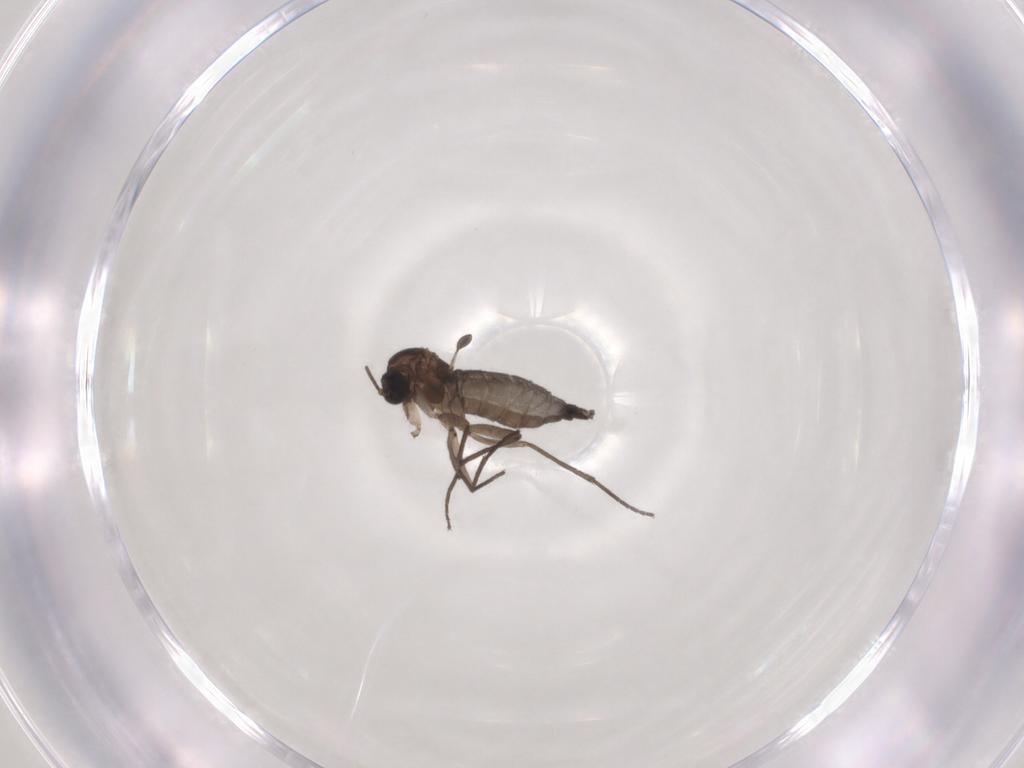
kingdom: Animalia
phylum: Arthropoda
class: Insecta
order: Diptera
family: Sciaridae
